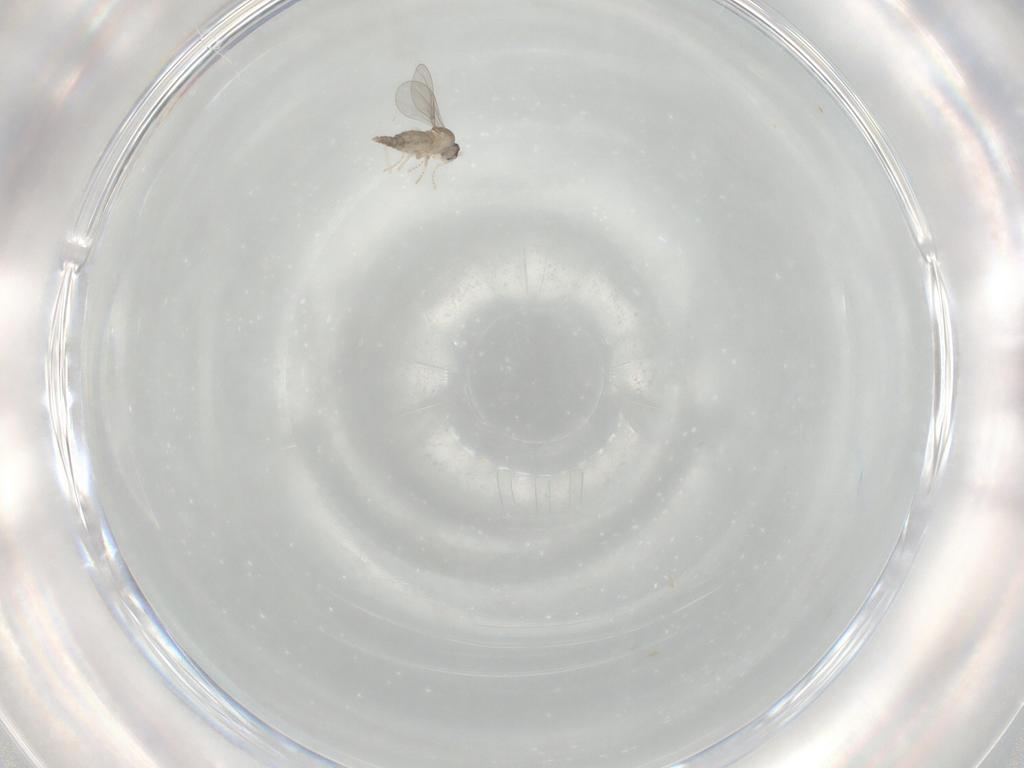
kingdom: Animalia
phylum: Arthropoda
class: Insecta
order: Diptera
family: Cecidomyiidae
